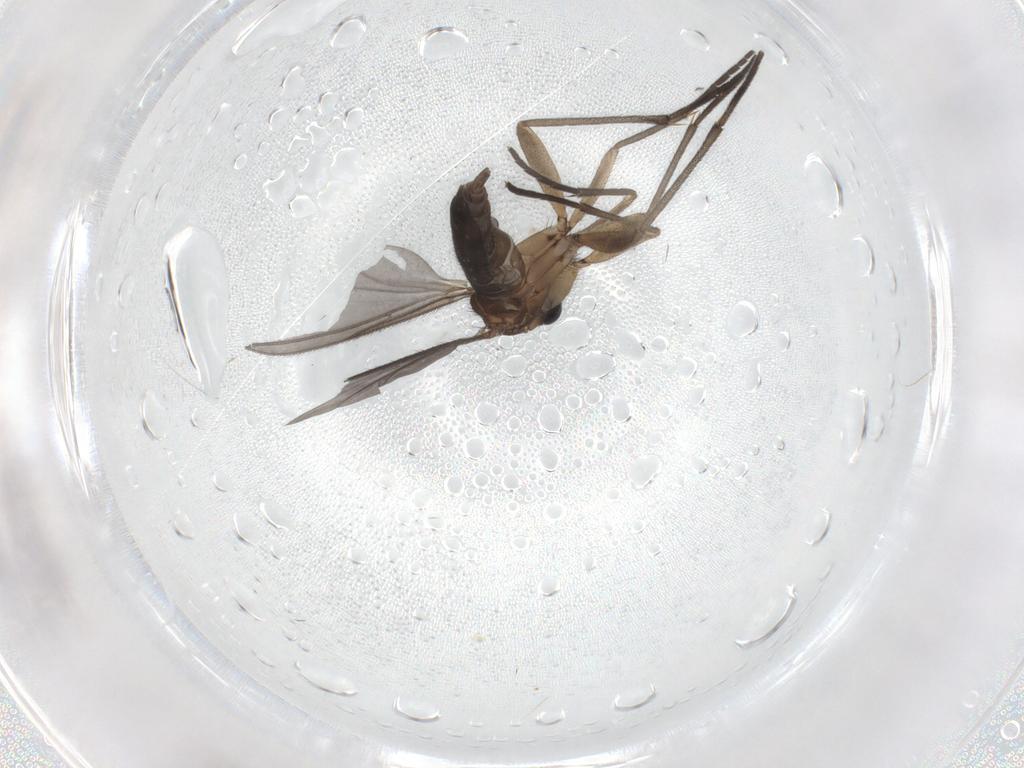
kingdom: Animalia
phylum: Arthropoda
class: Insecta
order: Diptera
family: Sciaridae
